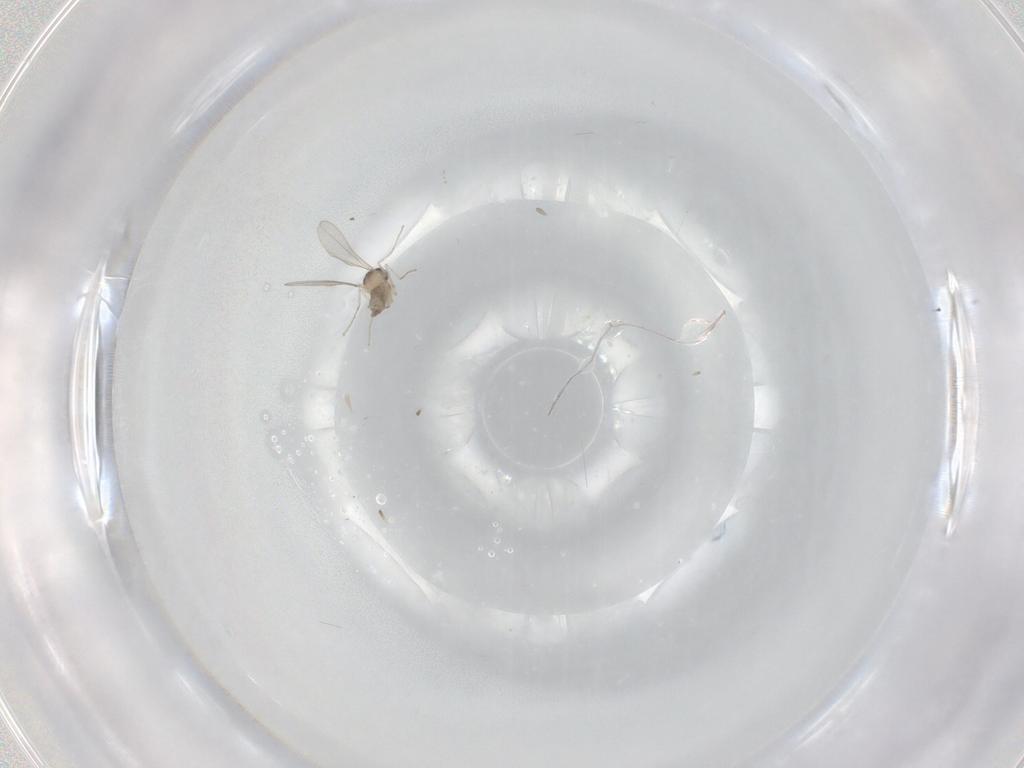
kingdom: Animalia
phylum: Arthropoda
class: Insecta
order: Diptera
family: Cecidomyiidae
